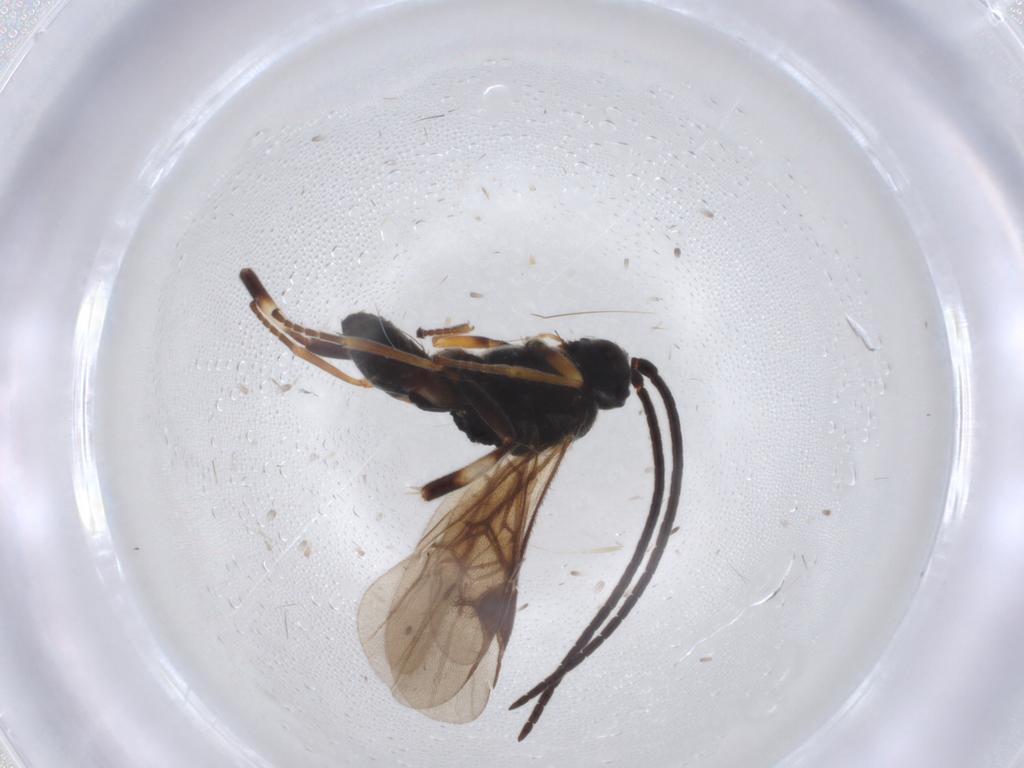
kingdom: Animalia
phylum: Arthropoda
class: Insecta
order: Hymenoptera
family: Braconidae
